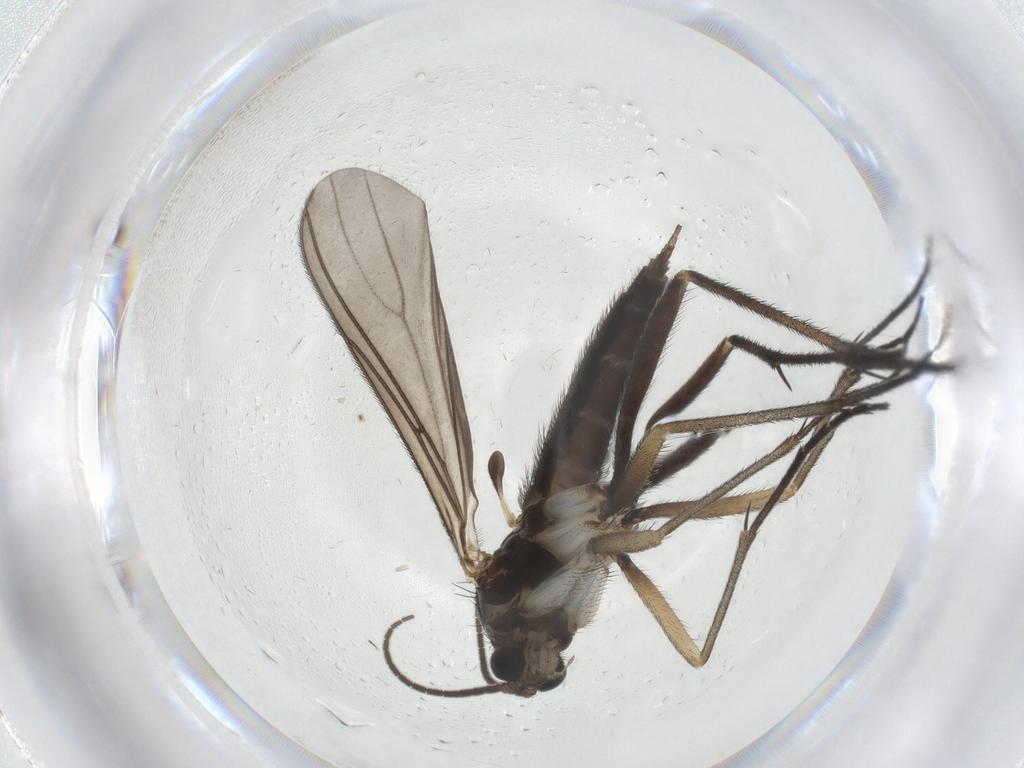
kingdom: Animalia
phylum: Arthropoda
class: Insecta
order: Diptera
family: Sciaridae
